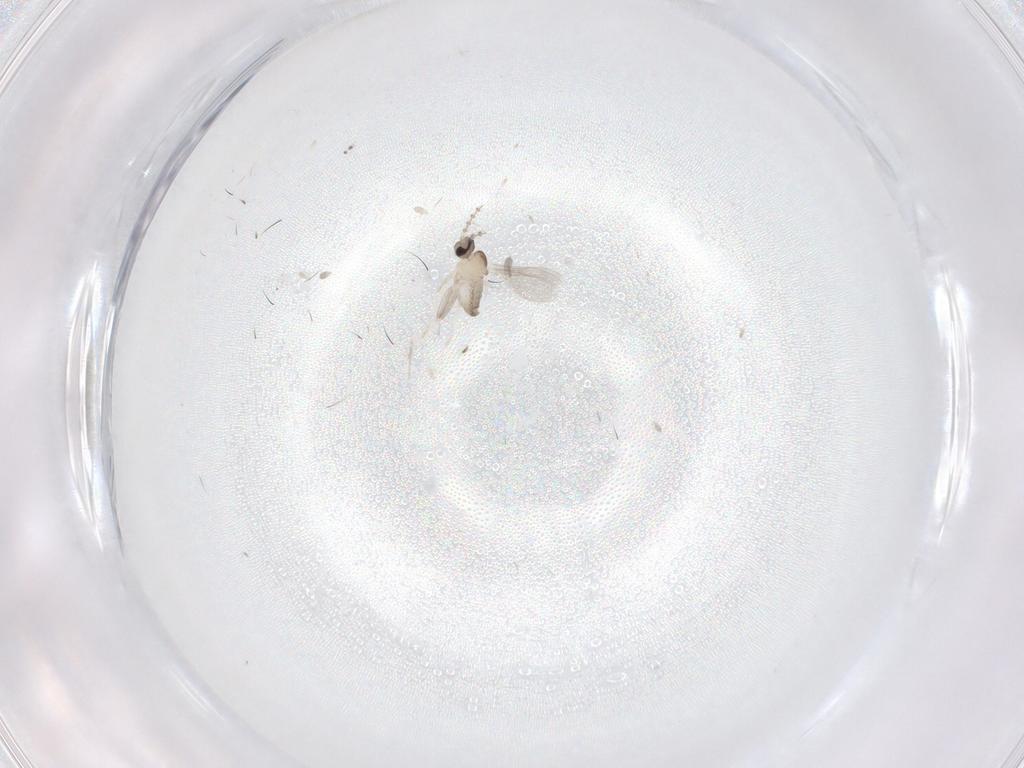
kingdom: Animalia
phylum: Arthropoda
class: Insecta
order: Diptera
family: Cecidomyiidae
